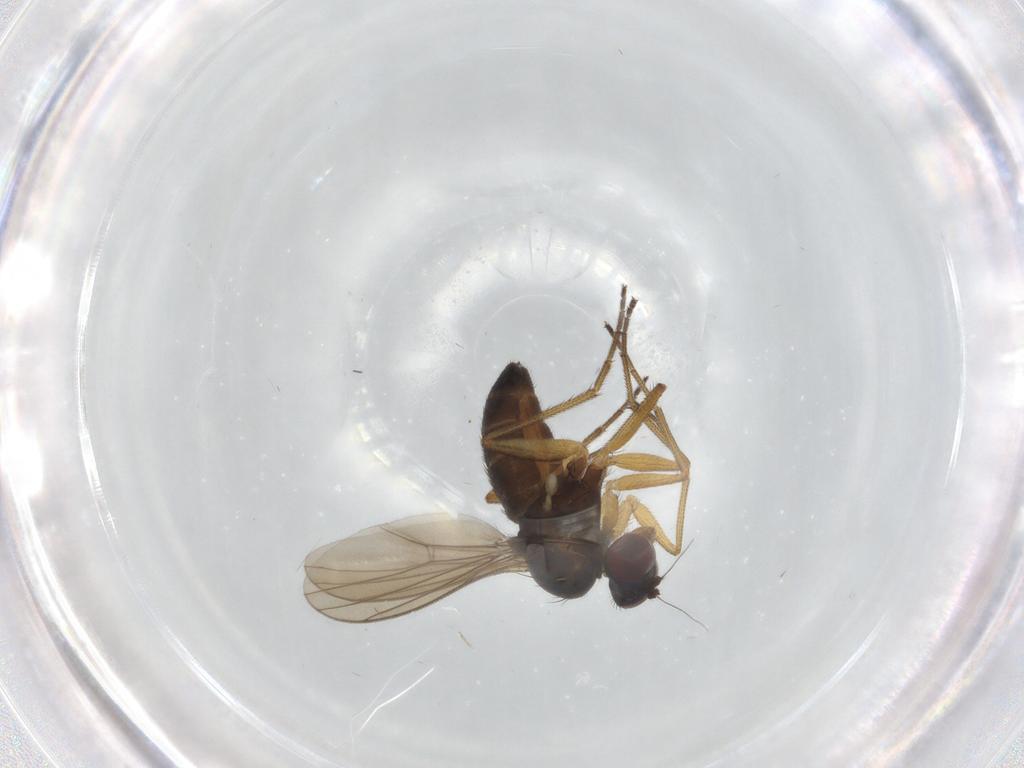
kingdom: Animalia
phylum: Arthropoda
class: Insecta
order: Diptera
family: Dolichopodidae
